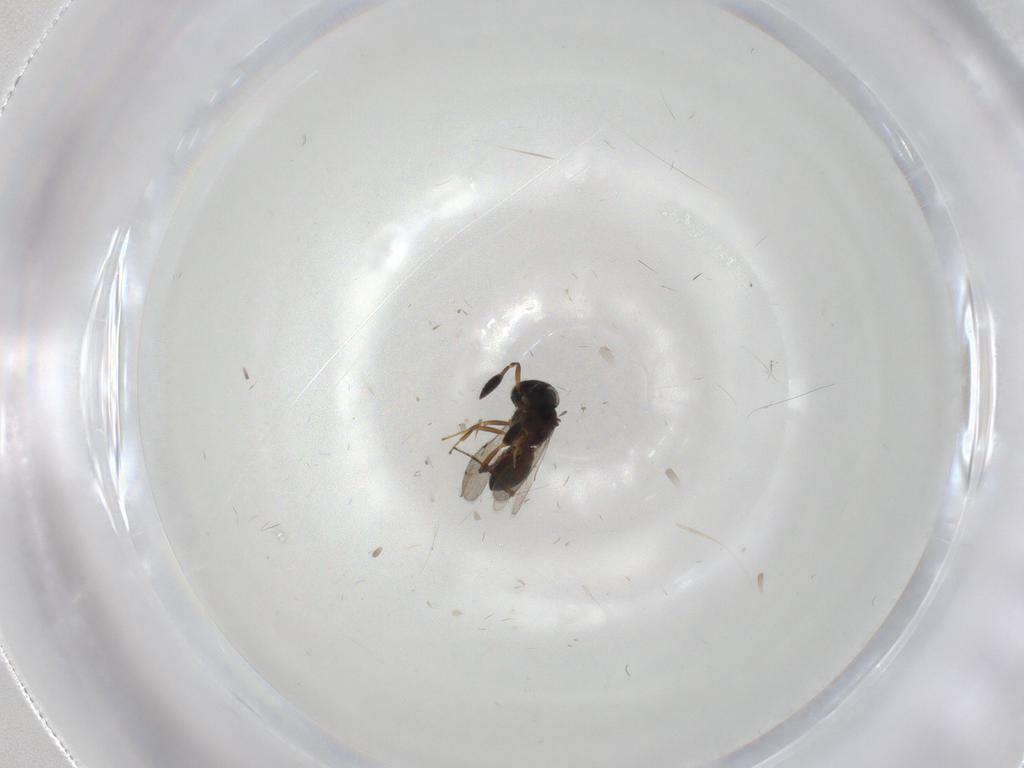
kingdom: Animalia
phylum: Arthropoda
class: Insecta
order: Hymenoptera
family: Scelionidae
